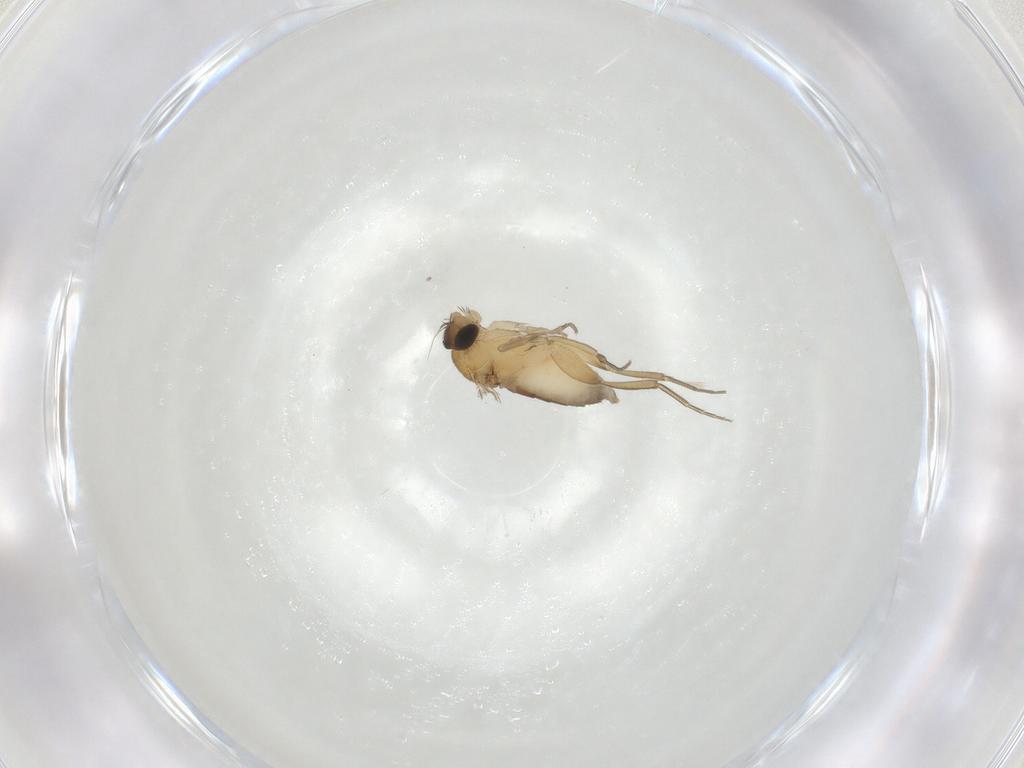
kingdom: Animalia
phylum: Arthropoda
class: Insecta
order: Diptera
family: Phoridae
